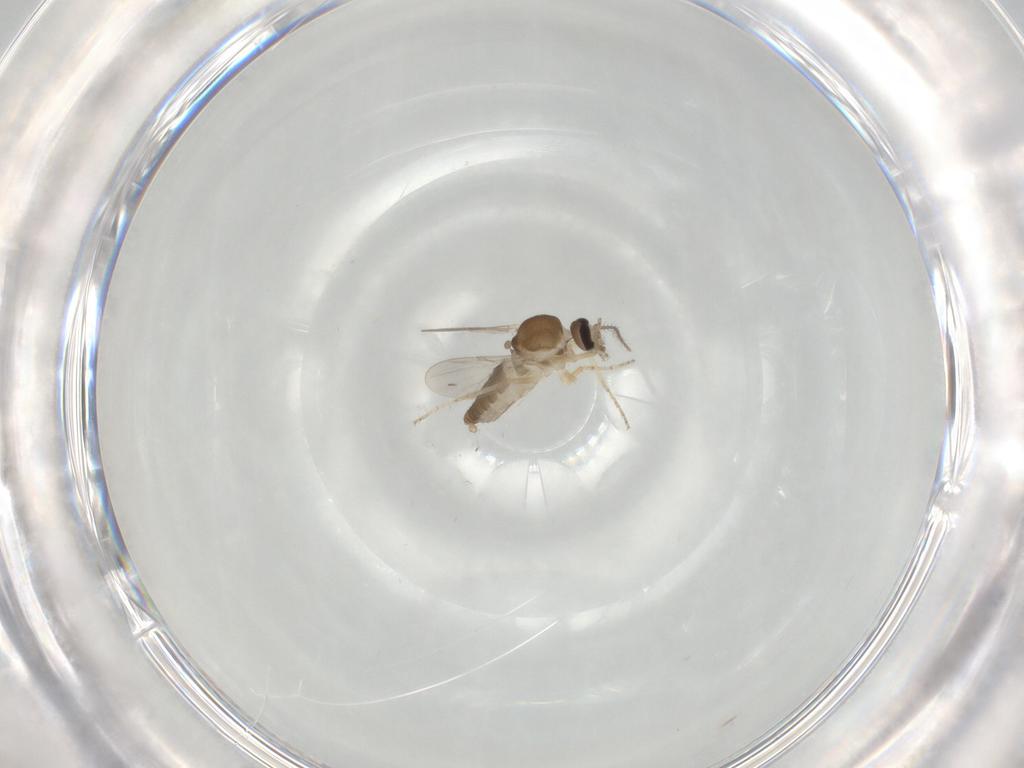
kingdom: Animalia
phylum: Arthropoda
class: Insecta
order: Diptera
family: Ceratopogonidae
